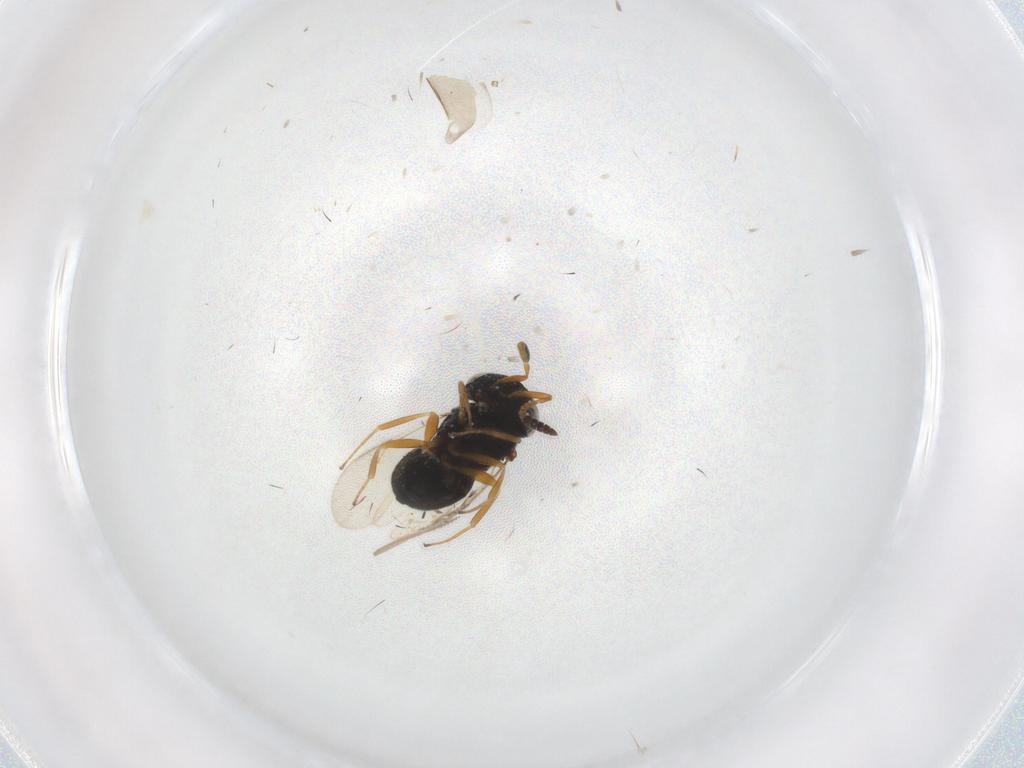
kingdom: Animalia
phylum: Arthropoda
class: Insecta
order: Hymenoptera
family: Scelionidae
